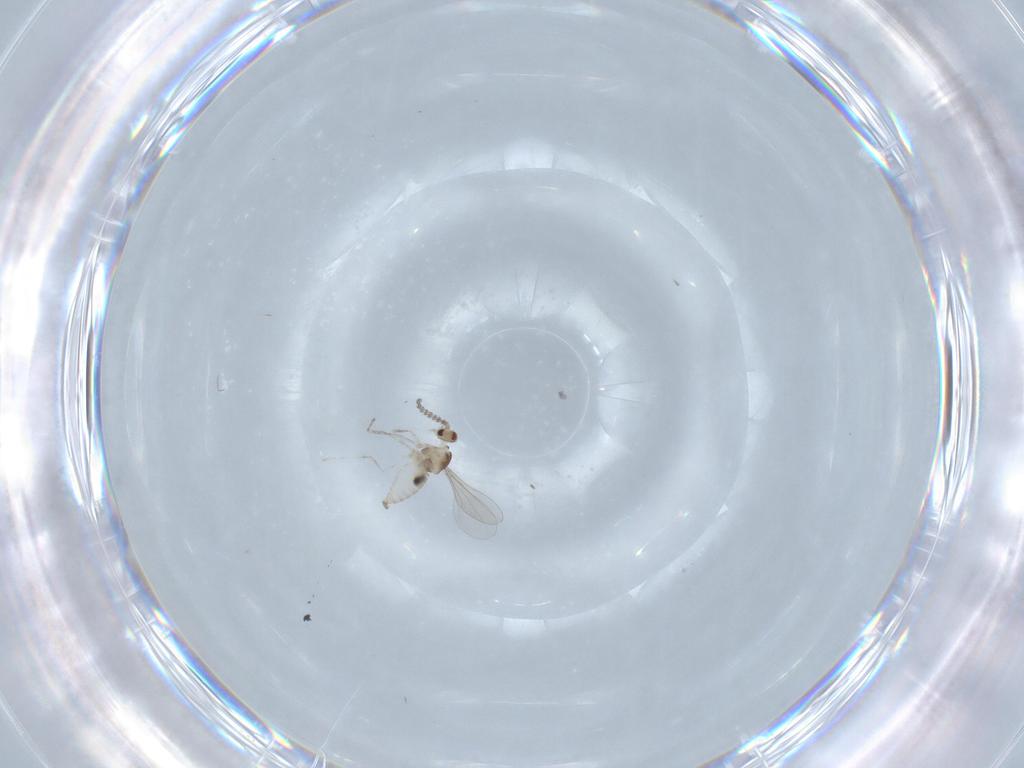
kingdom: Animalia
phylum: Arthropoda
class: Insecta
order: Diptera
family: Cecidomyiidae
